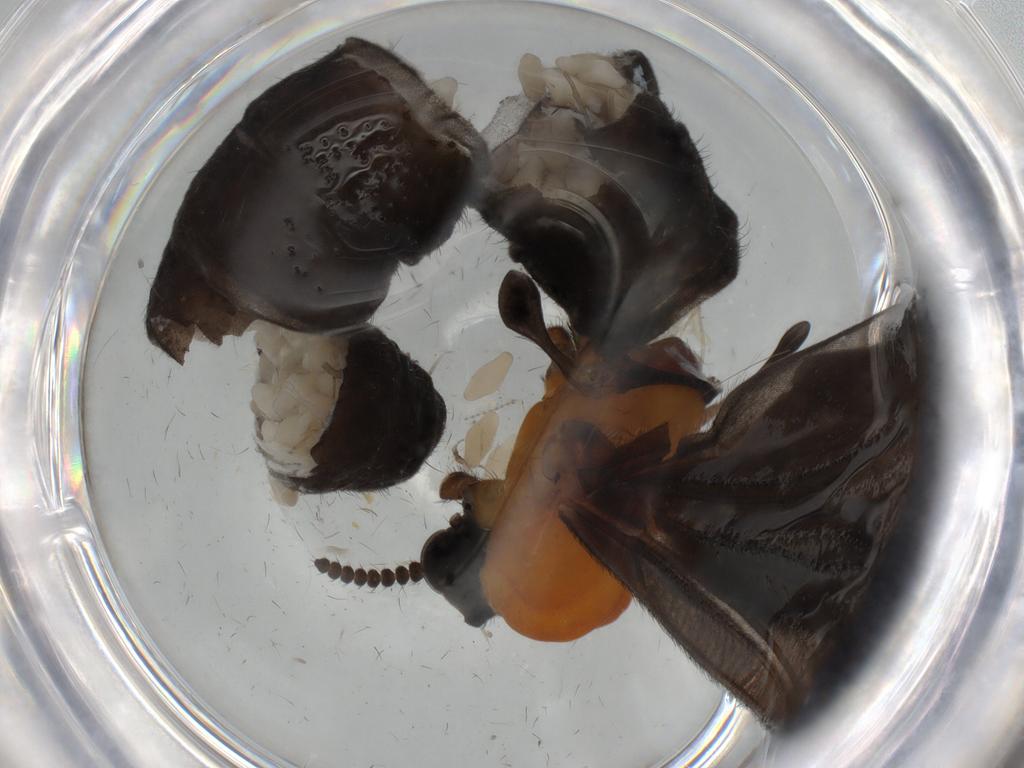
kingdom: Animalia
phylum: Arthropoda
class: Insecta
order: Diptera
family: Bibionidae
